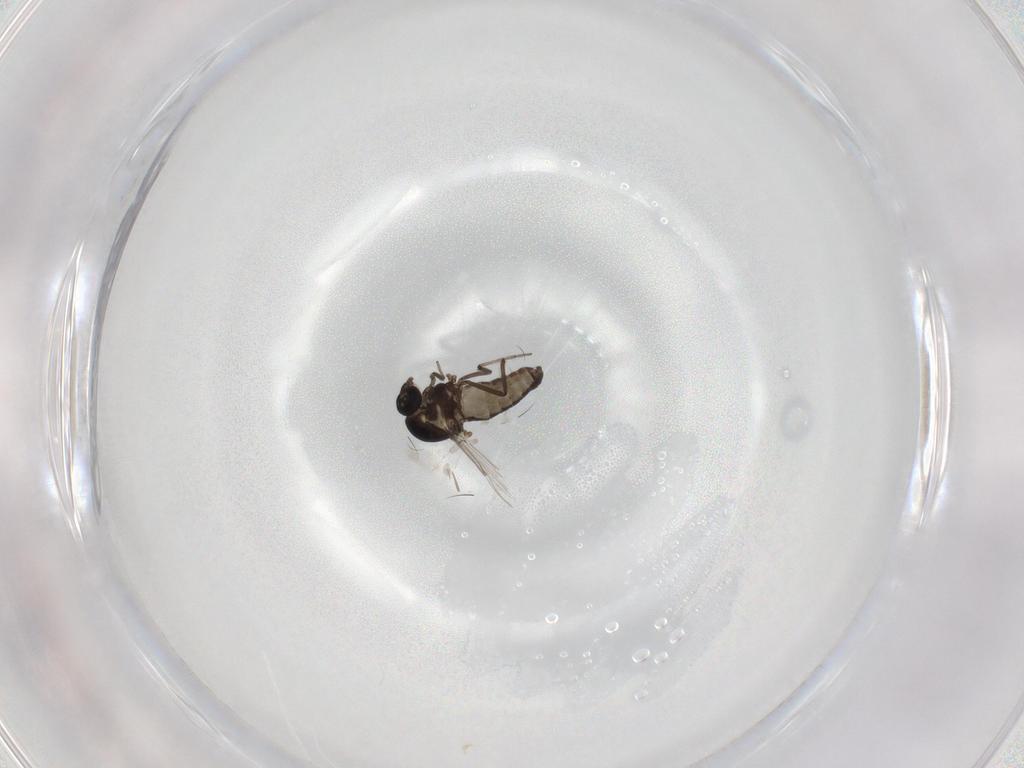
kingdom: Animalia
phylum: Arthropoda
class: Insecta
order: Diptera
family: Ceratopogonidae
